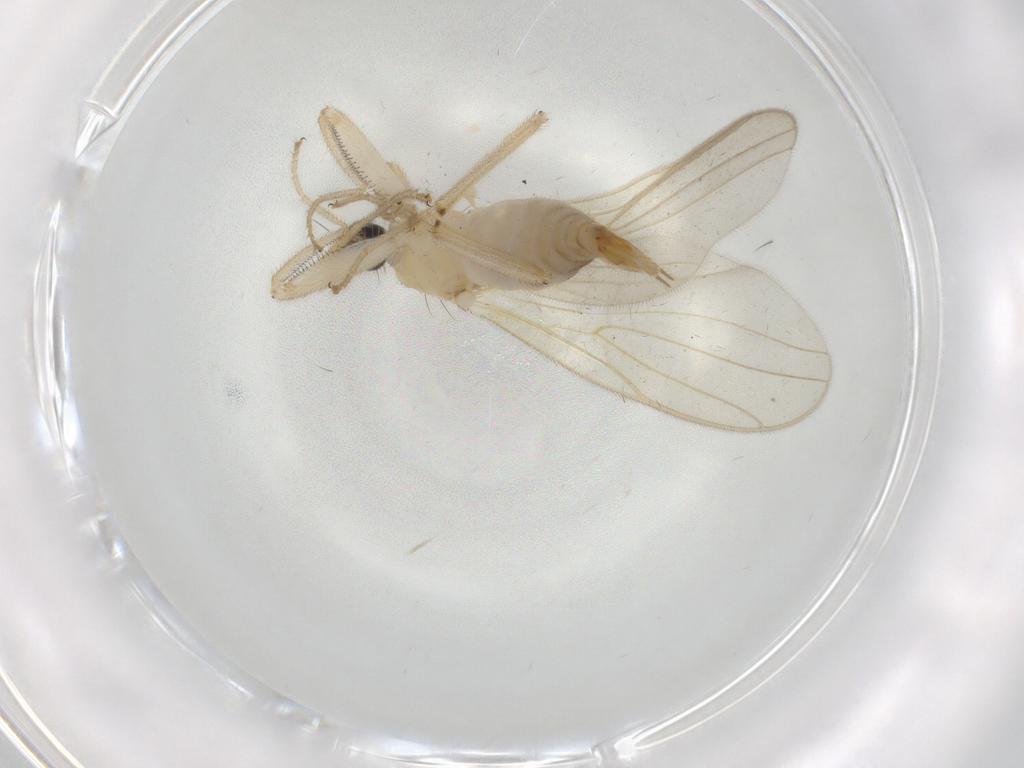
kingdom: Animalia
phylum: Arthropoda
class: Insecta
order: Diptera
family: Hybotidae
